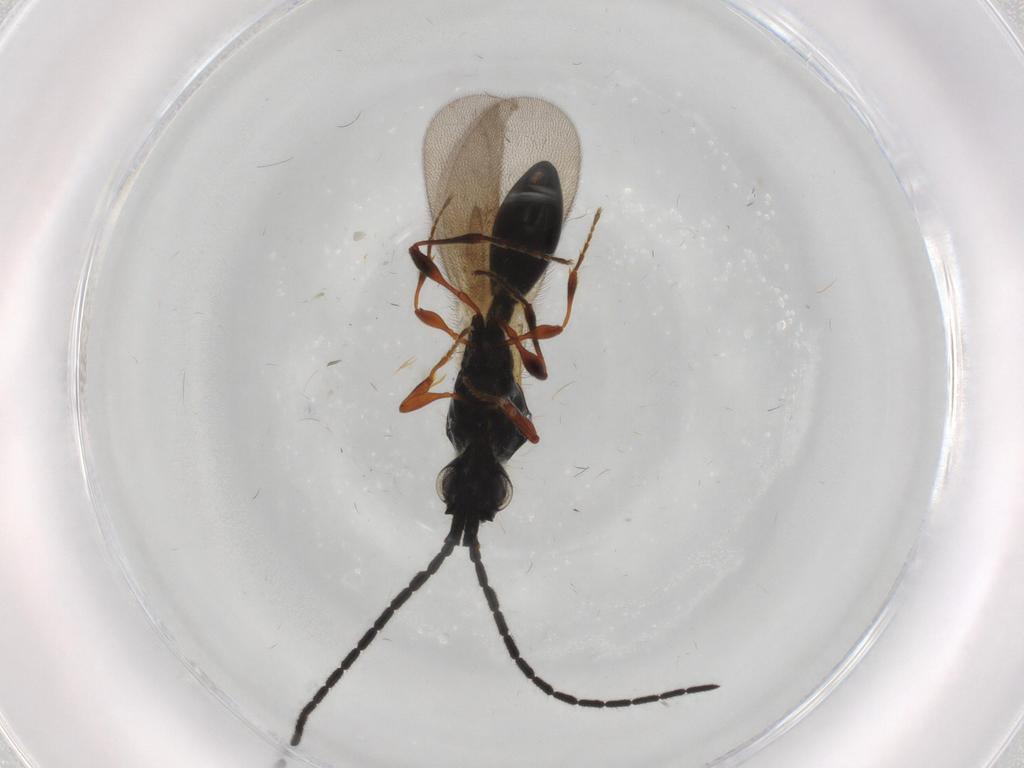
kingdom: Animalia
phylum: Arthropoda
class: Insecta
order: Hymenoptera
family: Diapriidae
